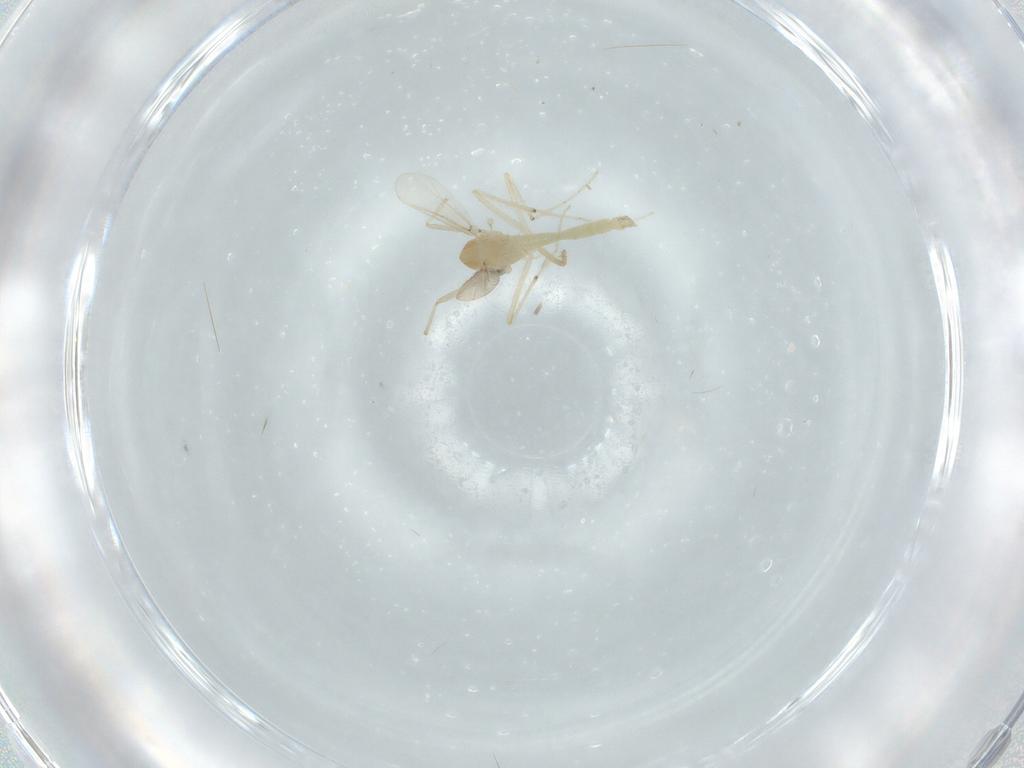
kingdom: Animalia
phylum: Arthropoda
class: Insecta
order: Diptera
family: Chironomidae
